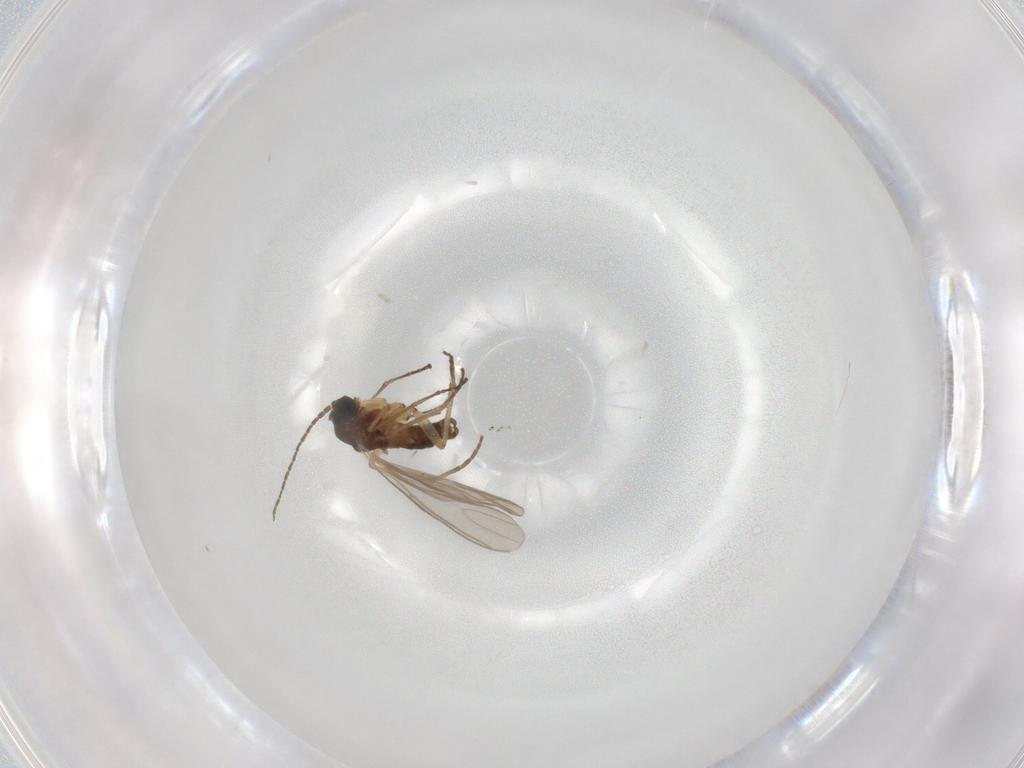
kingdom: Animalia
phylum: Arthropoda
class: Insecta
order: Diptera
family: Sciaridae
